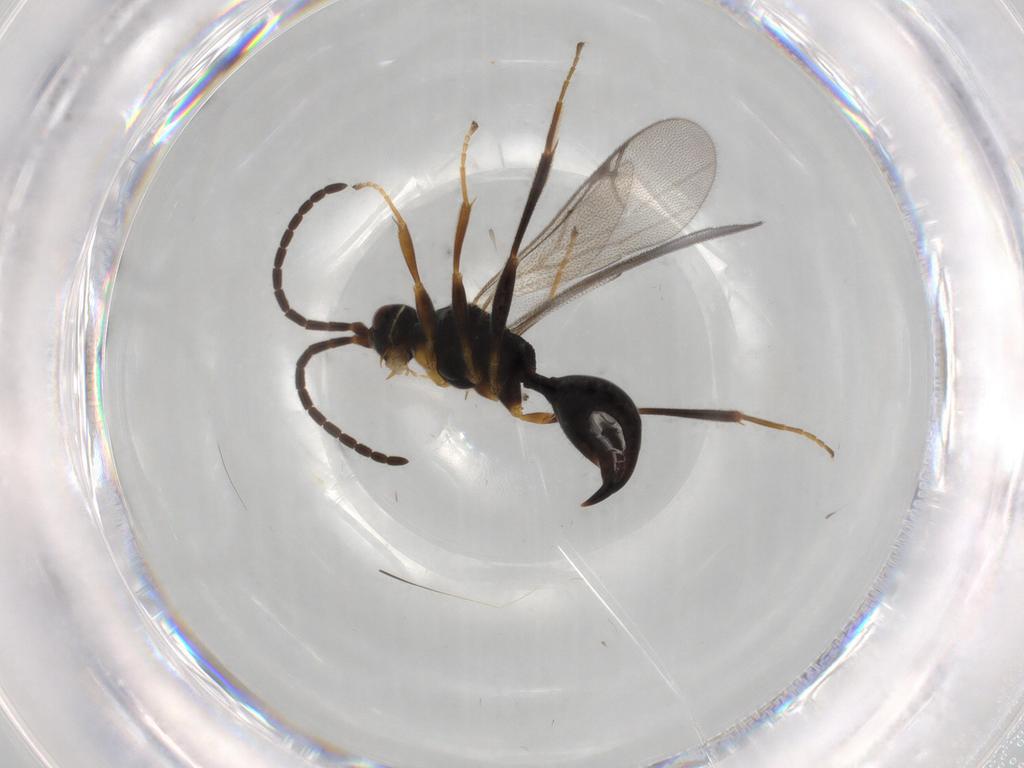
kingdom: Animalia
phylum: Arthropoda
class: Insecta
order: Hymenoptera
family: Proctotrupidae
